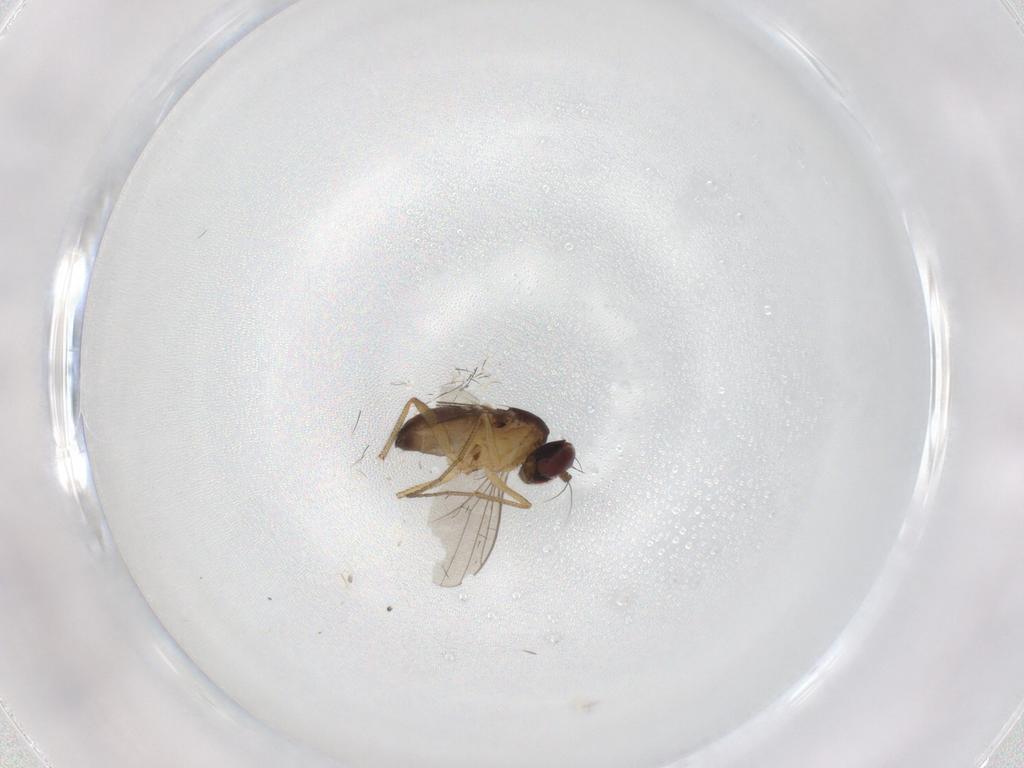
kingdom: Animalia
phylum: Arthropoda
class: Insecta
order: Diptera
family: Dolichopodidae
